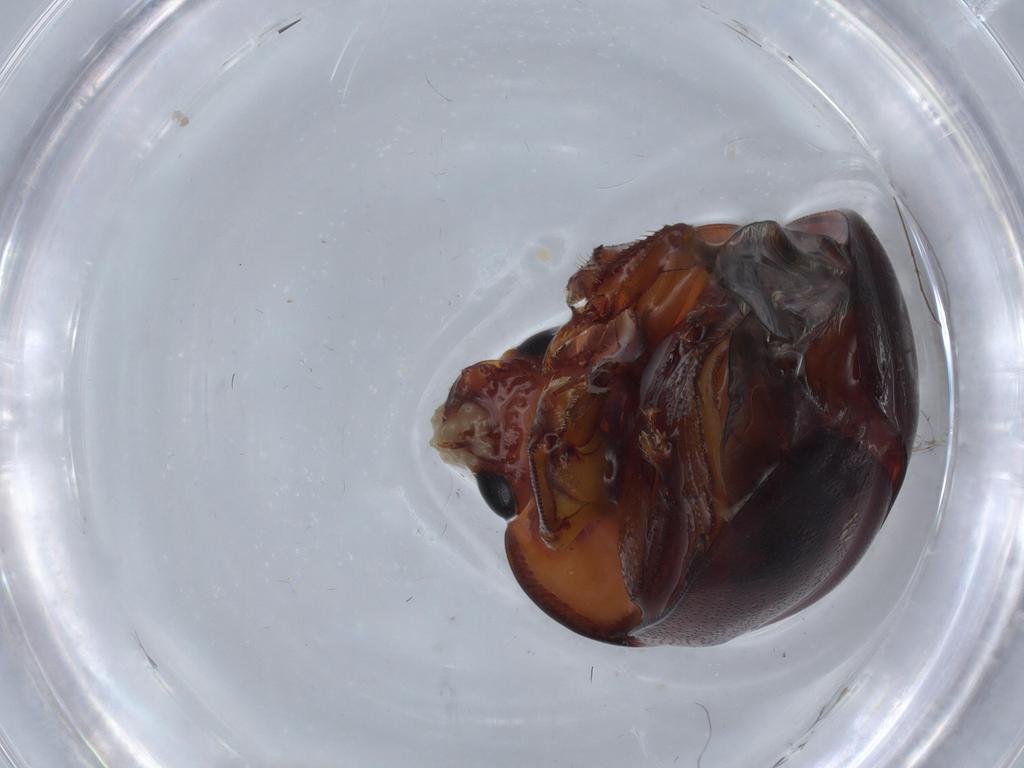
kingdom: Animalia
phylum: Arthropoda
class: Insecta
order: Coleoptera
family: Nitidulidae
